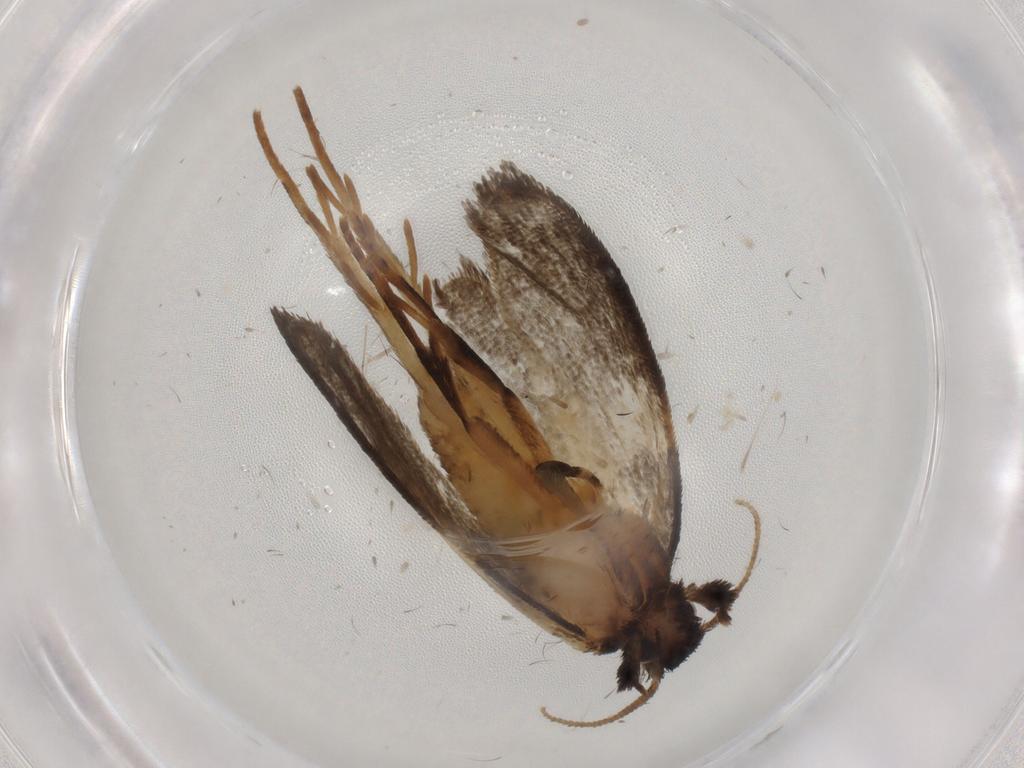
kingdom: Animalia
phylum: Arthropoda
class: Insecta
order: Lepidoptera
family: Psychidae
